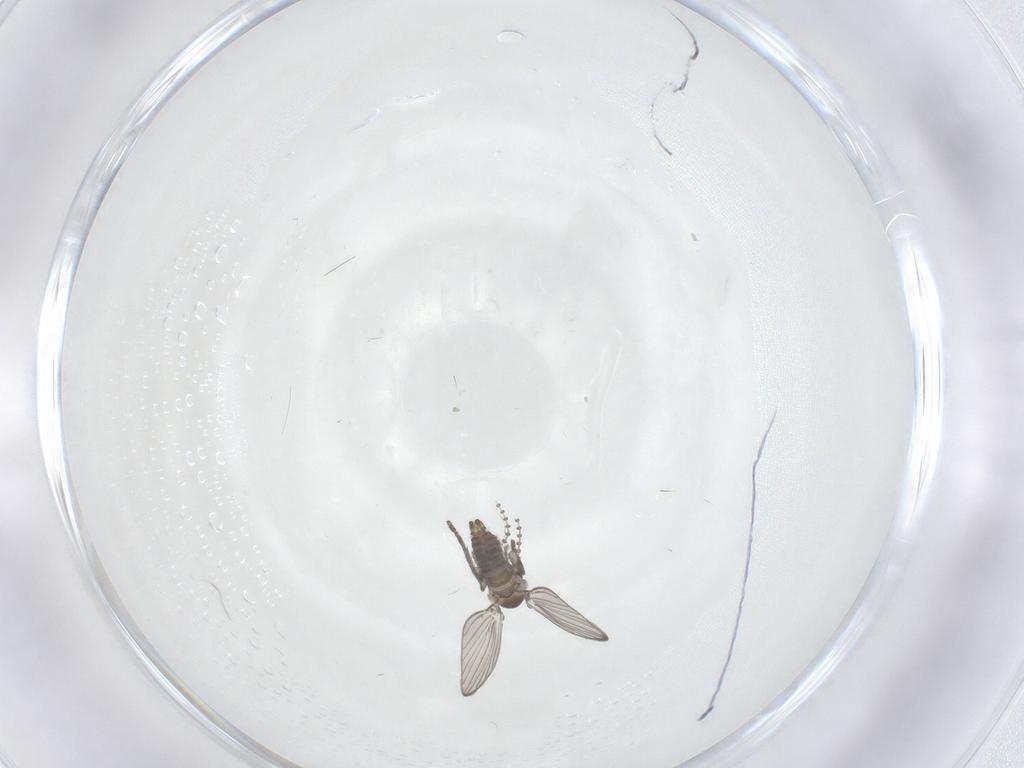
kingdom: Animalia
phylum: Arthropoda
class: Insecta
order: Diptera
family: Psychodidae
